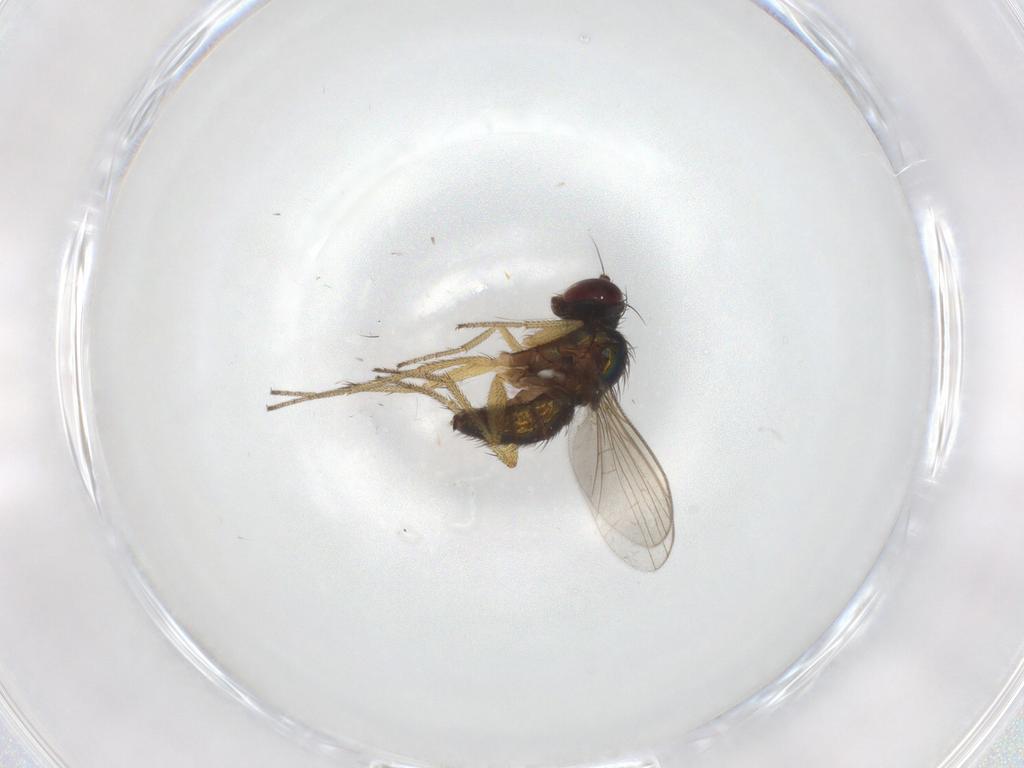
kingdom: Animalia
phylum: Arthropoda
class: Insecta
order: Diptera
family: Dolichopodidae
